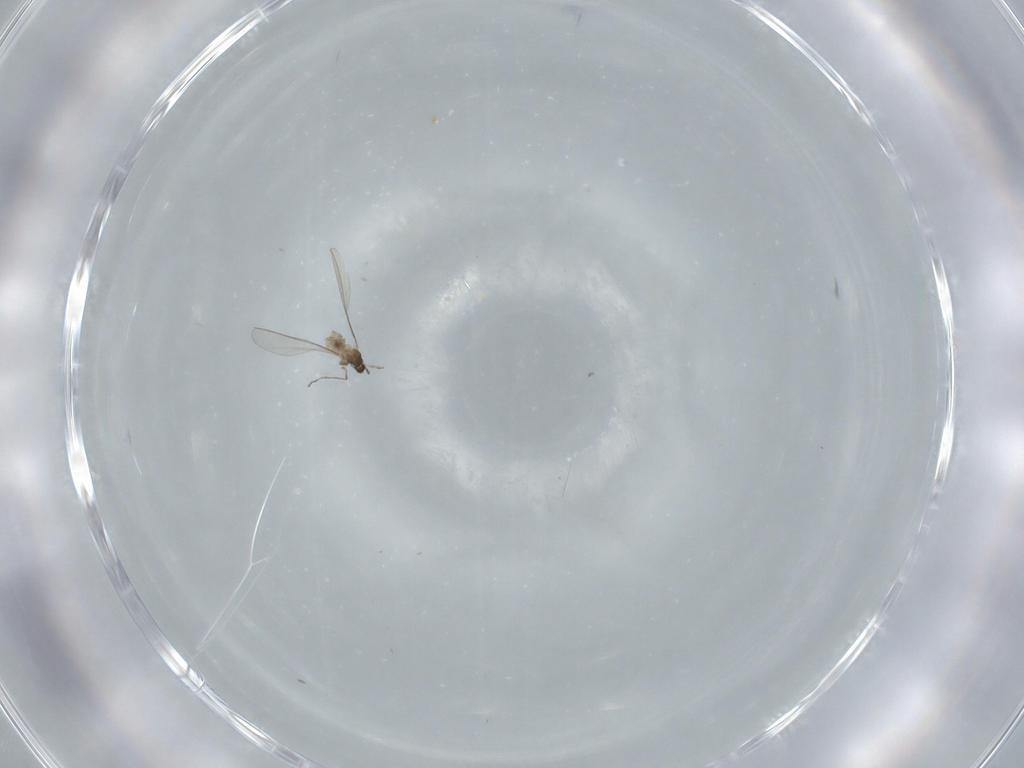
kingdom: Animalia
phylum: Arthropoda
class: Insecta
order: Diptera
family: Cecidomyiidae
